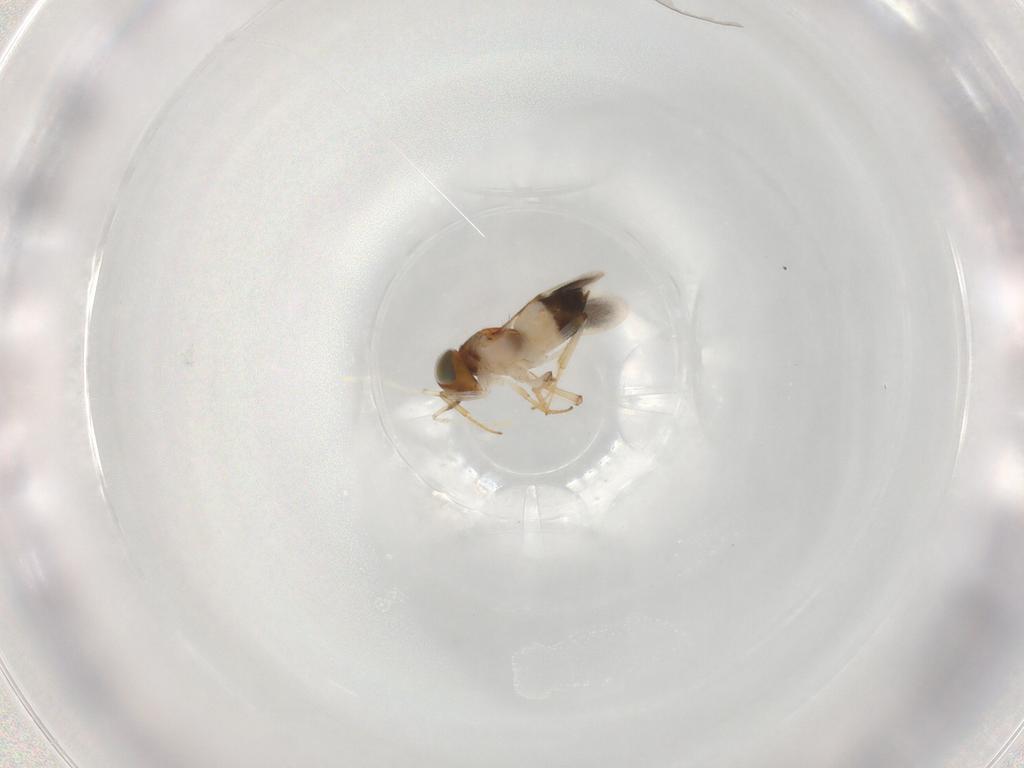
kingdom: Animalia
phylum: Arthropoda
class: Insecta
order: Hymenoptera
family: Encyrtidae
